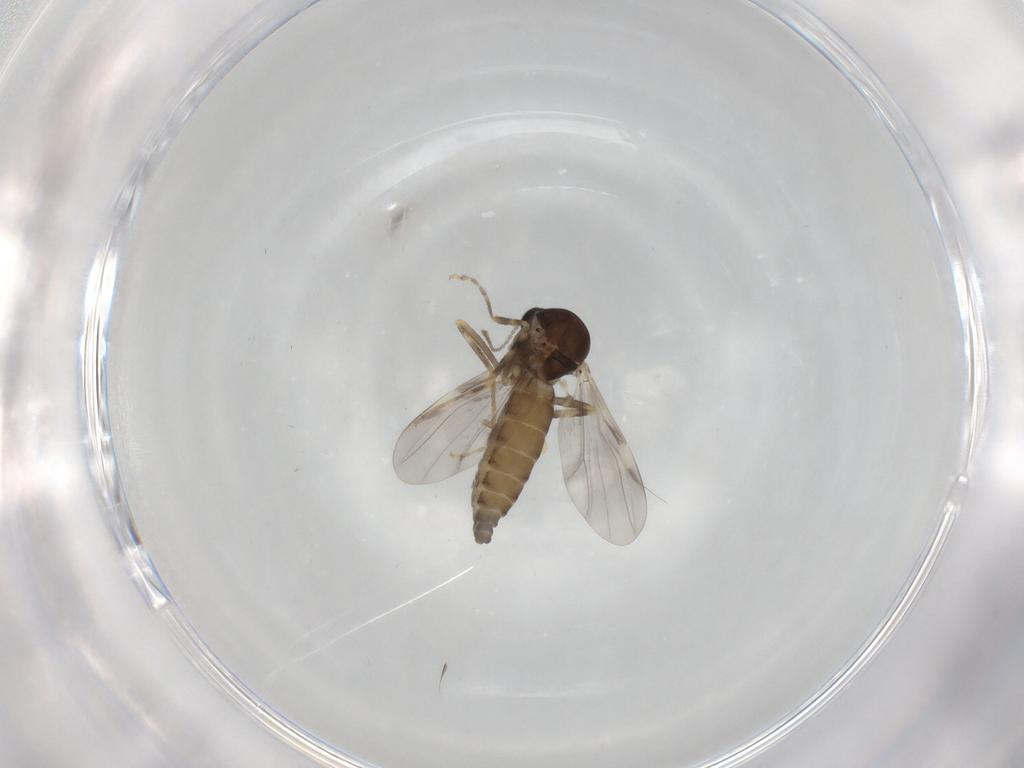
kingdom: Animalia
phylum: Arthropoda
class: Insecta
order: Diptera
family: Ceratopogonidae
